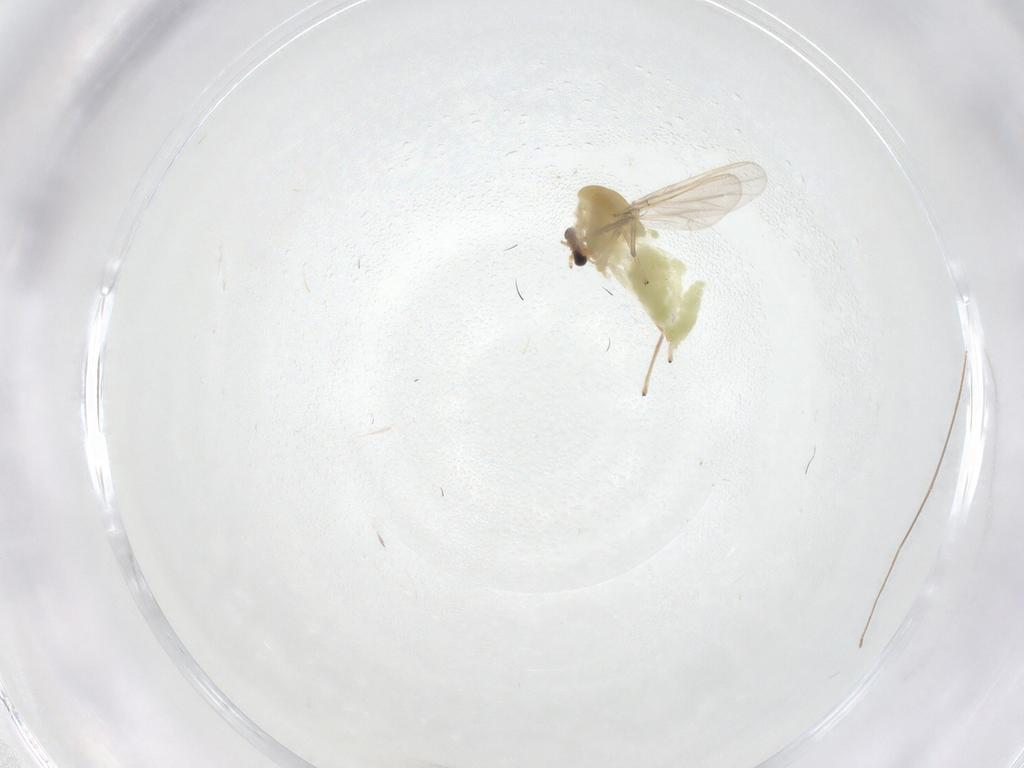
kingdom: Animalia
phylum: Arthropoda
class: Insecta
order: Diptera
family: Chironomidae
